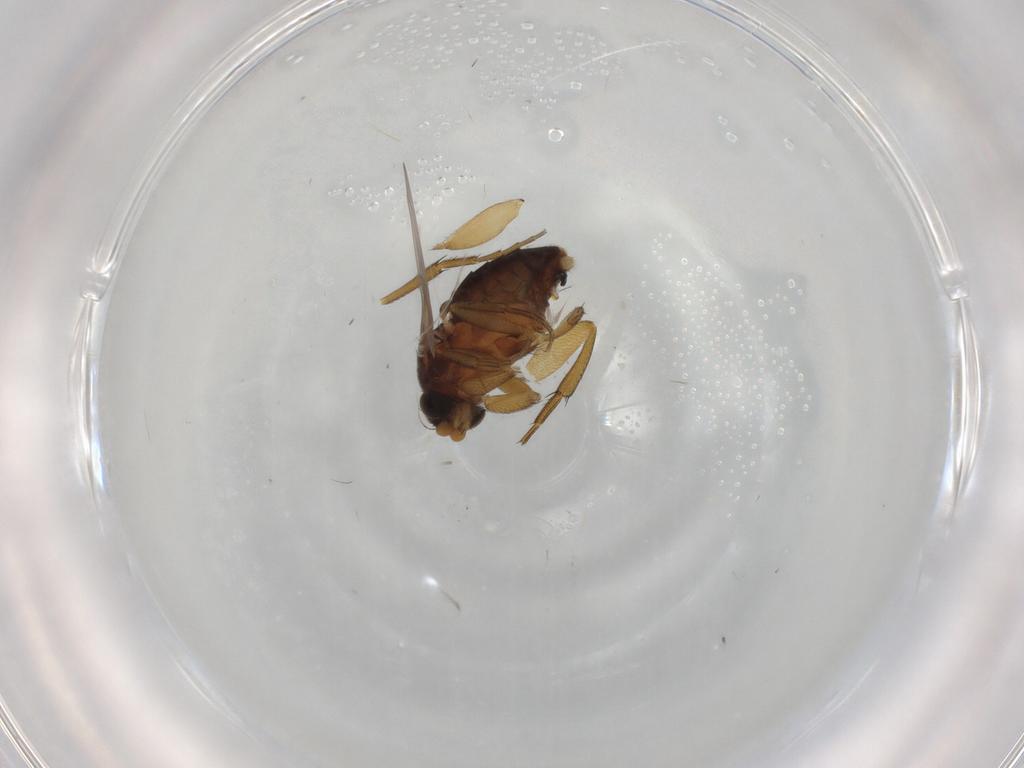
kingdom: Animalia
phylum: Arthropoda
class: Insecta
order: Diptera
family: Phoridae
